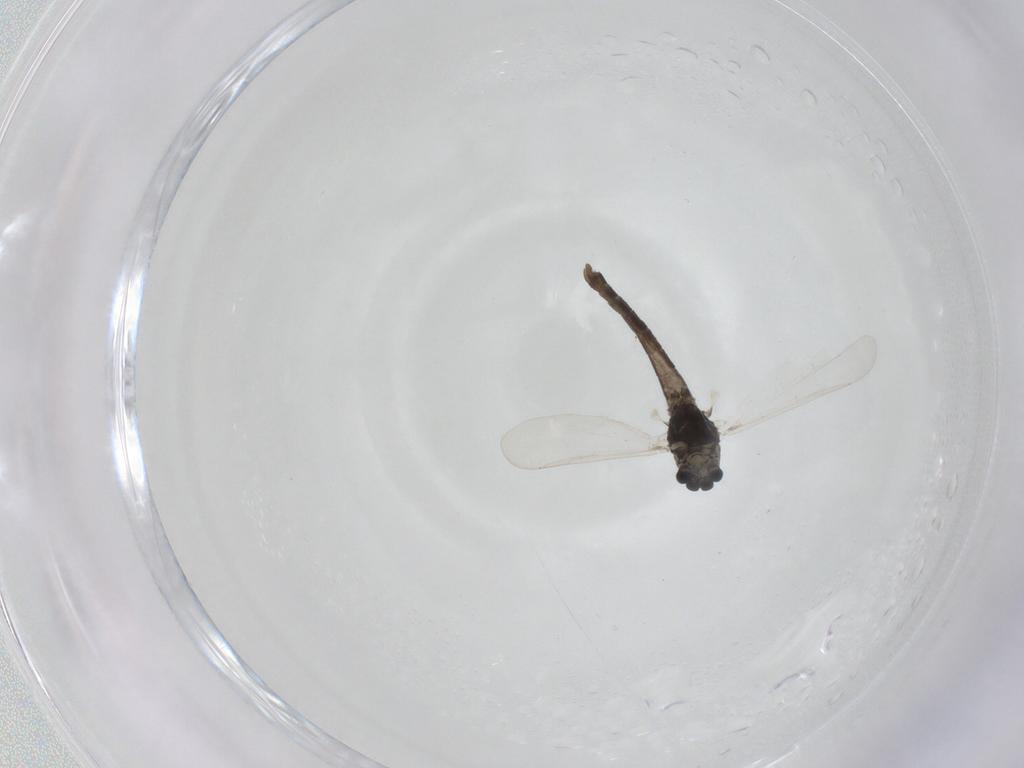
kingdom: Animalia
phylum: Arthropoda
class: Insecta
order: Diptera
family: Chironomidae
